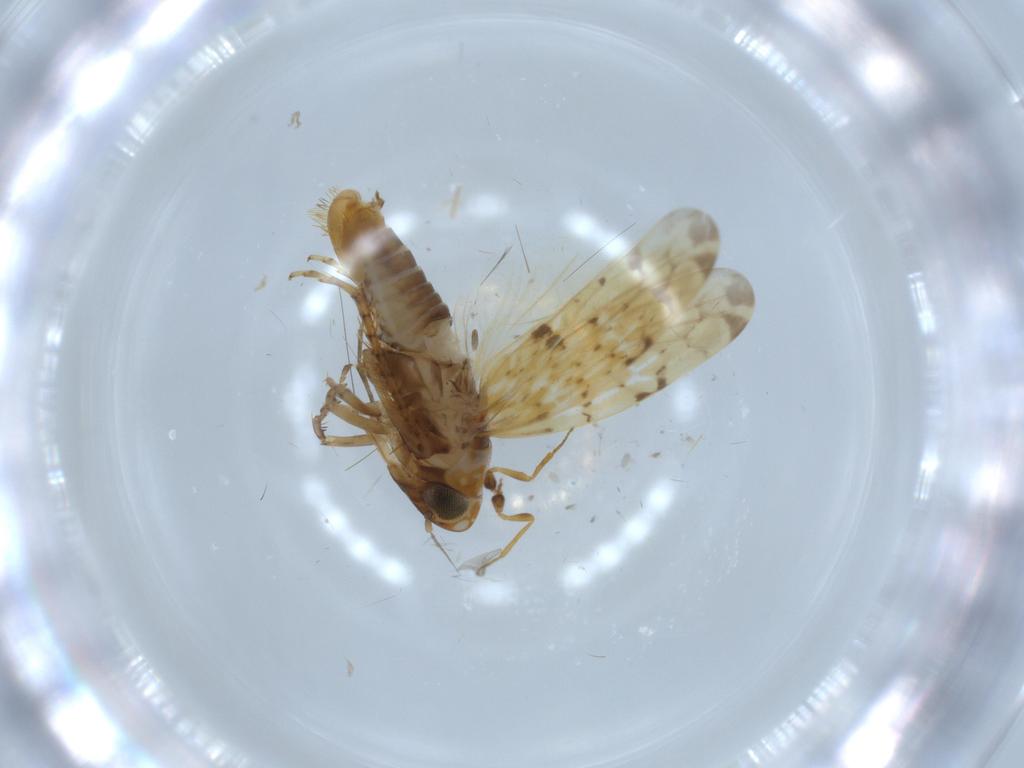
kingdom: Animalia
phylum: Arthropoda
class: Insecta
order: Hemiptera
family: Cicadellidae
